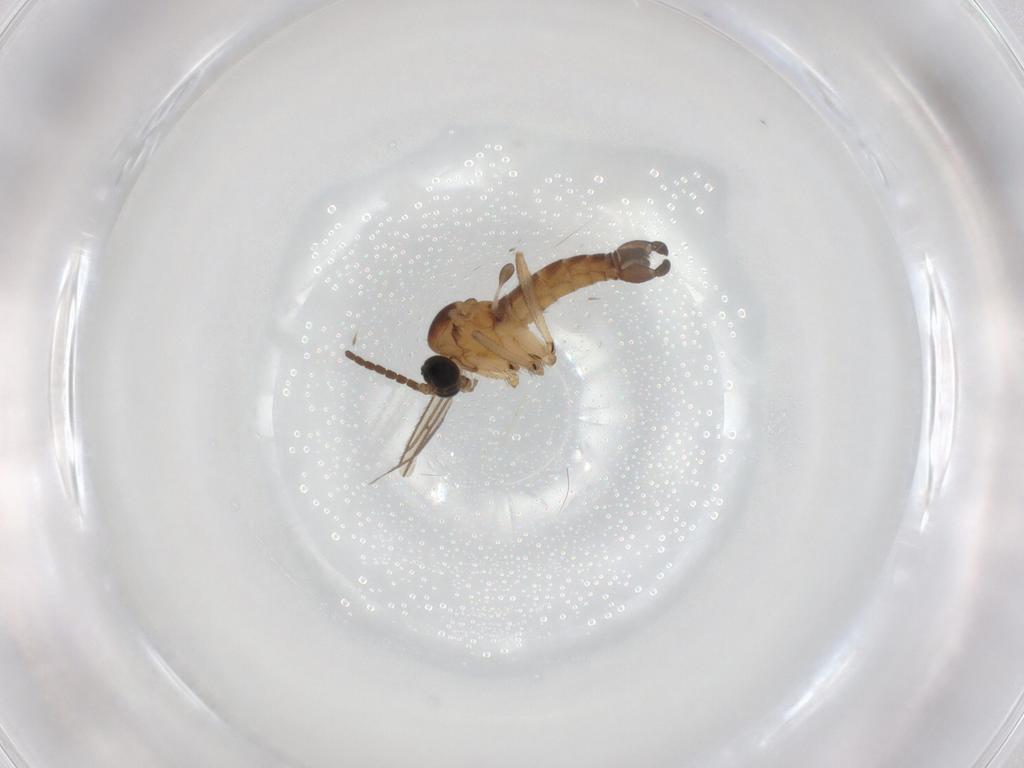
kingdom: Animalia
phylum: Arthropoda
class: Insecta
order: Diptera
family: Sciaridae
